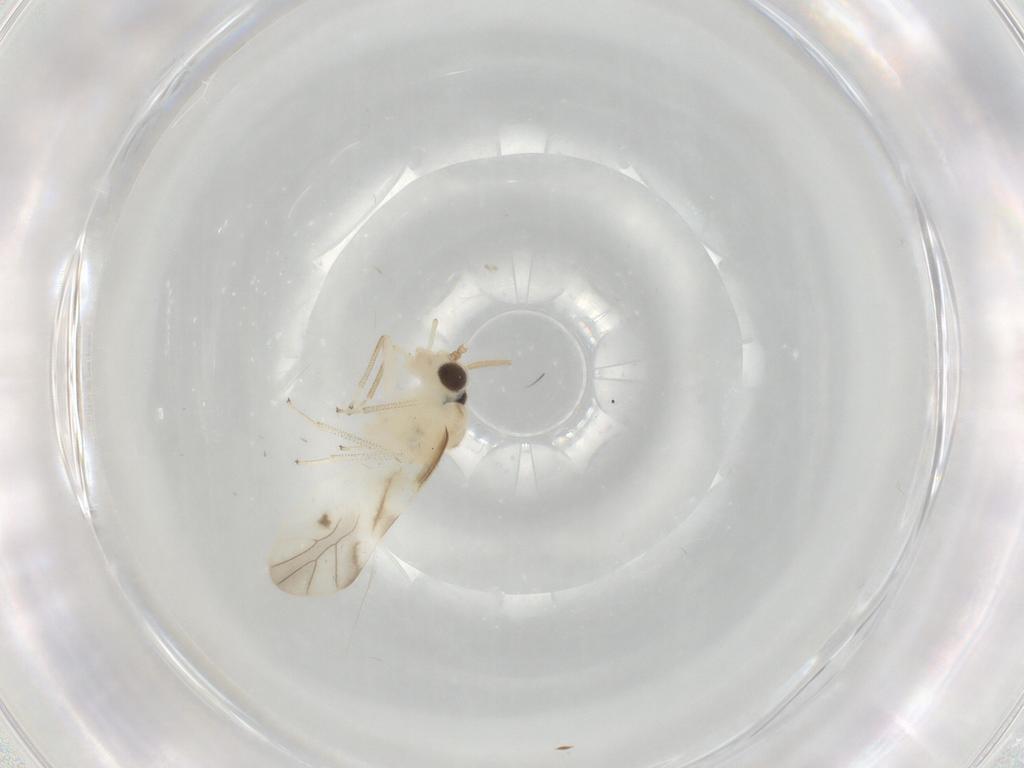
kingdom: Animalia
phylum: Arthropoda
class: Insecta
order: Psocodea
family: Caeciliusidae
